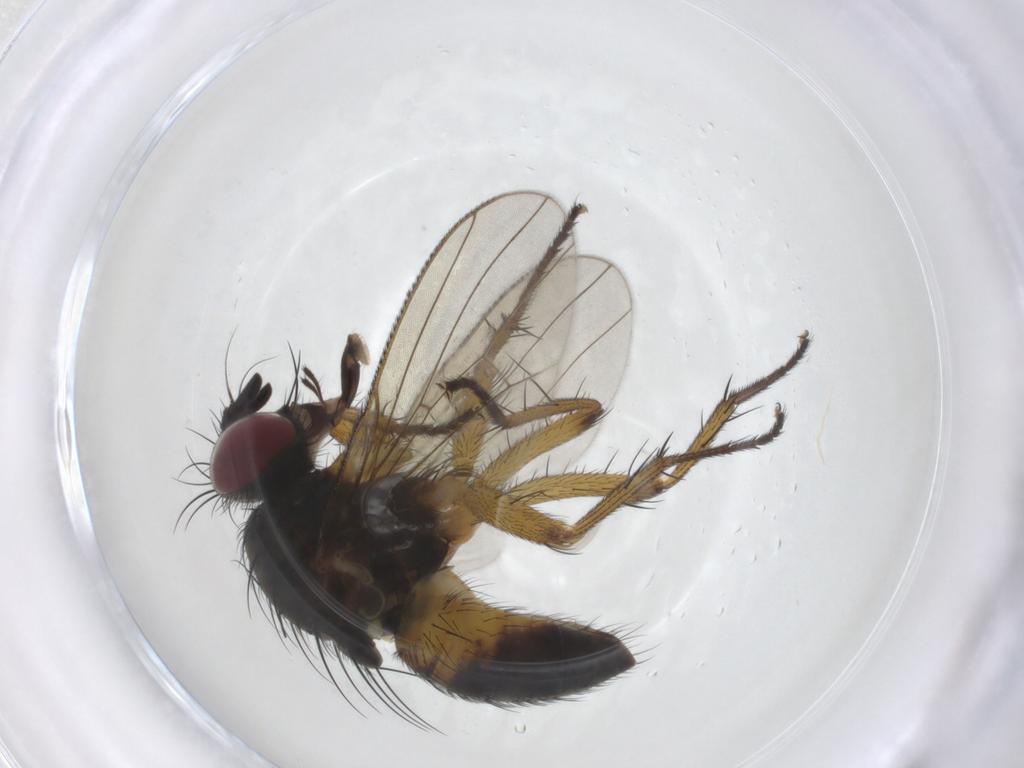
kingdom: Animalia
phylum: Arthropoda
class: Insecta
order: Diptera
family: Muscidae
